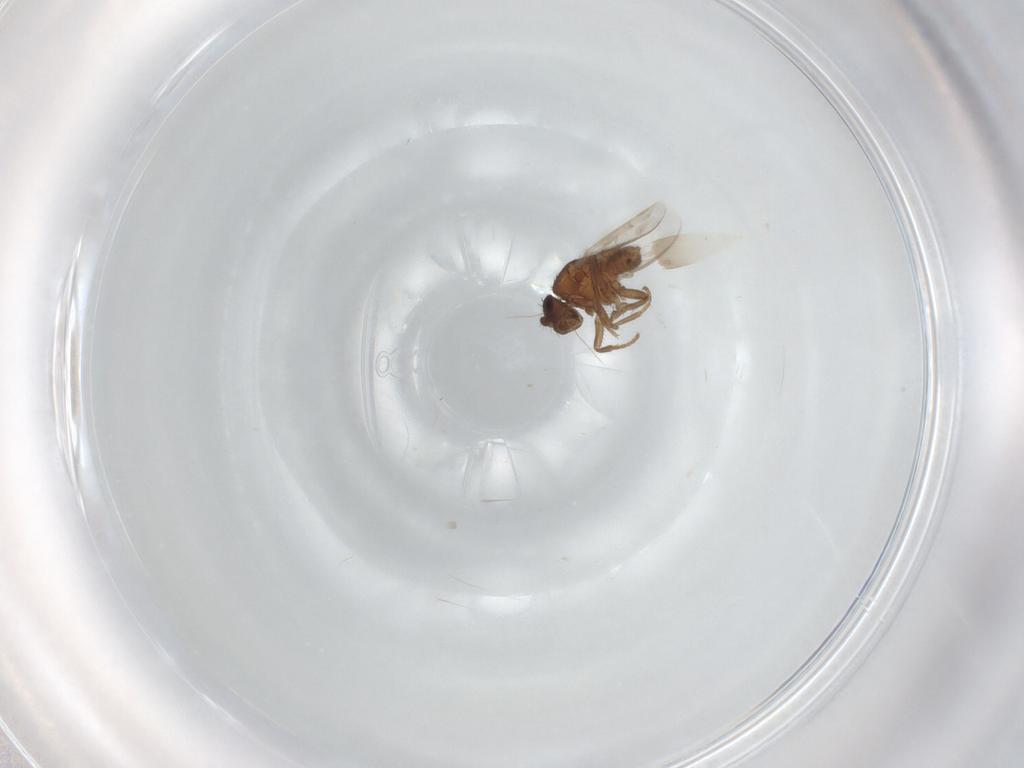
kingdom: Animalia
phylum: Arthropoda
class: Insecta
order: Diptera
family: Sphaeroceridae
